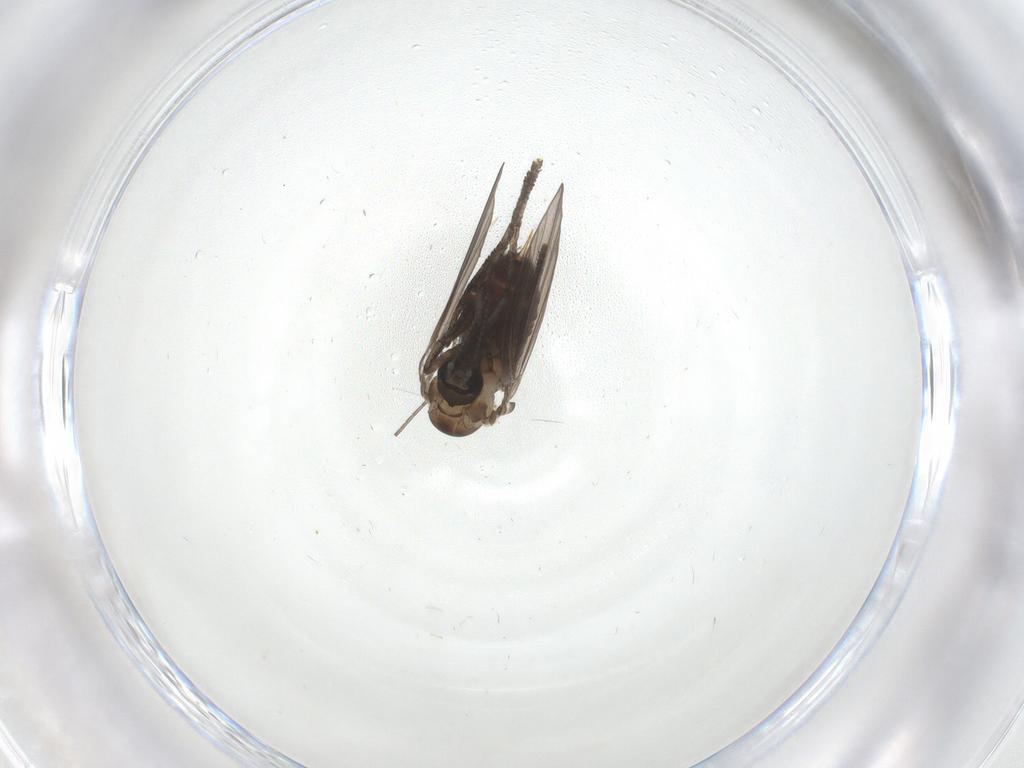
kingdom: Animalia
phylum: Arthropoda
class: Insecta
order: Diptera
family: Psychodidae
